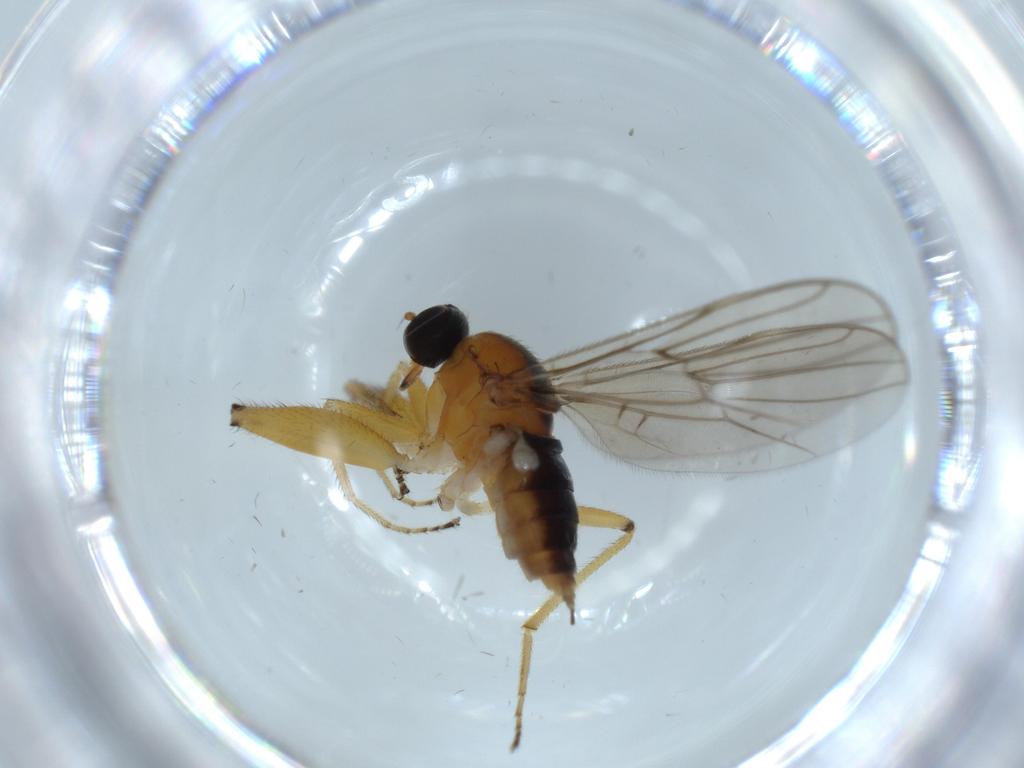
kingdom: Animalia
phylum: Arthropoda
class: Insecta
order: Diptera
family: Cecidomyiidae
